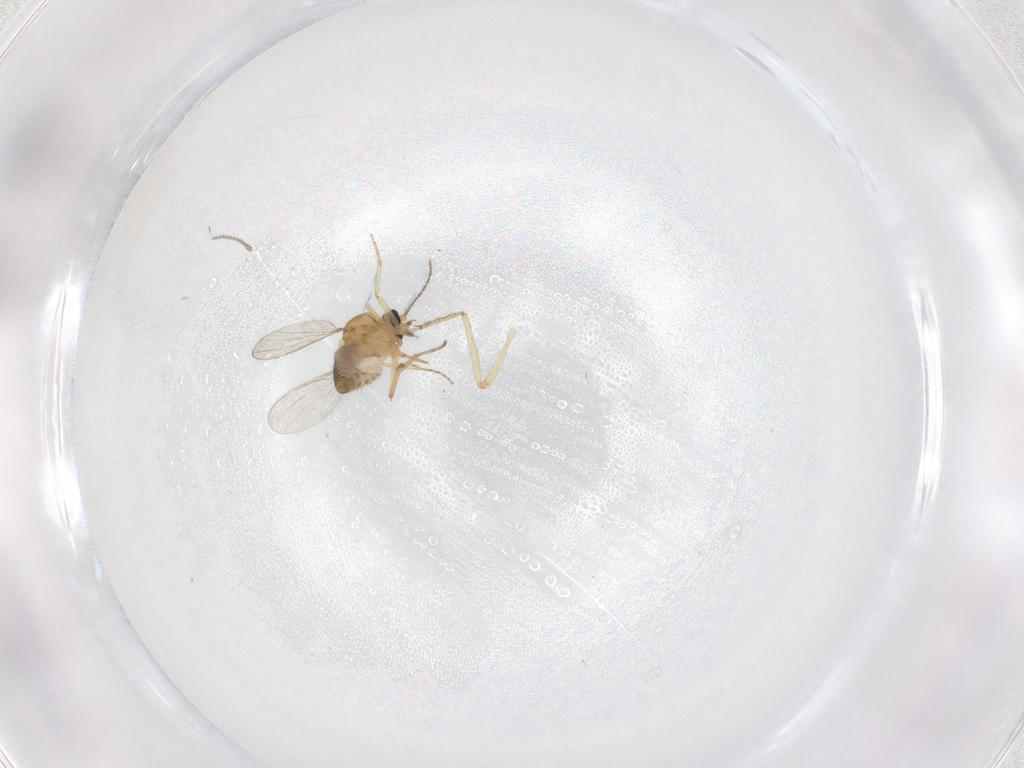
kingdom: Animalia
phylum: Arthropoda
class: Insecta
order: Diptera
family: Ceratopogonidae
